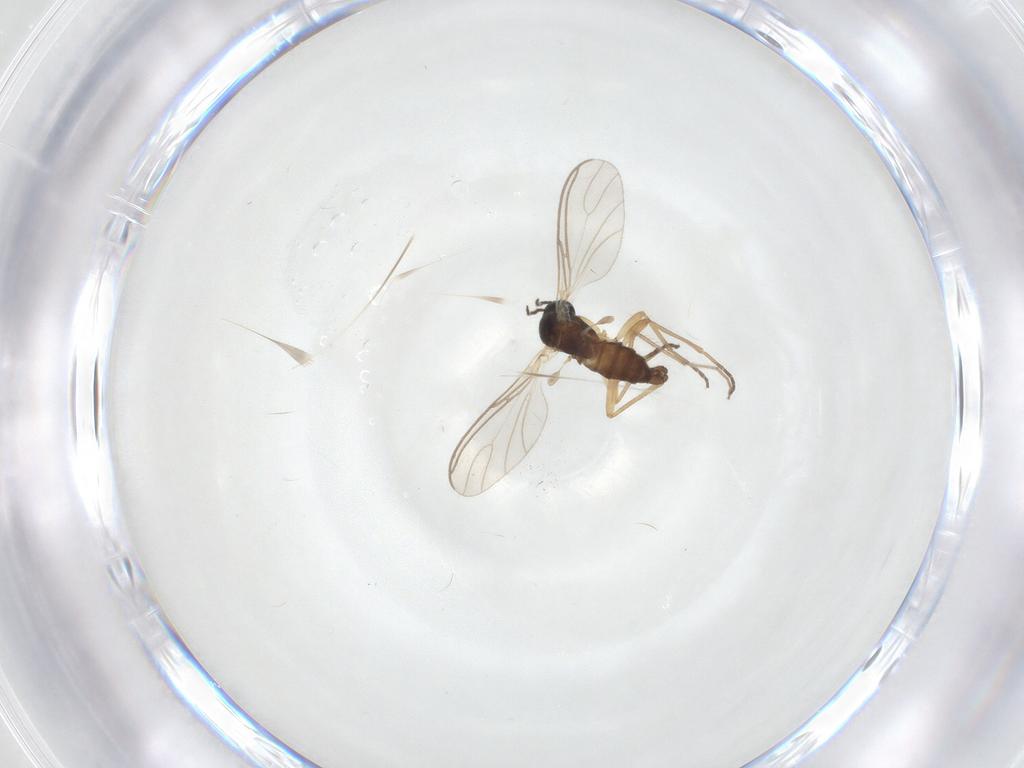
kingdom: Animalia
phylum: Arthropoda
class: Insecta
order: Diptera
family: Chironomidae
